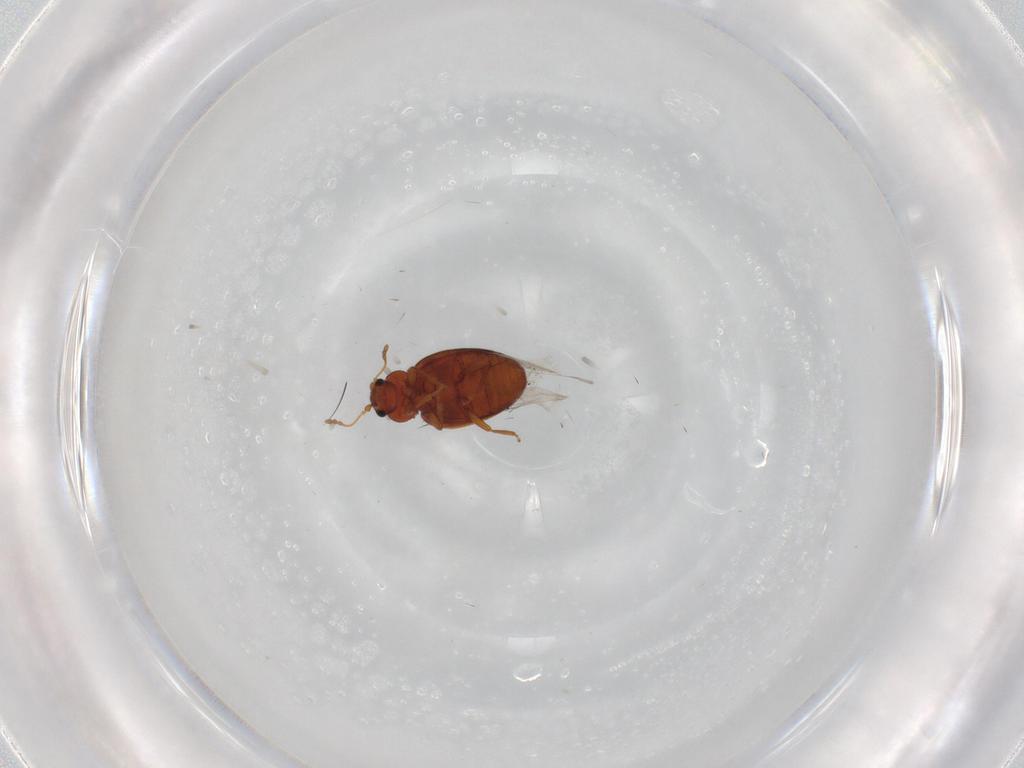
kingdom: Animalia
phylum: Arthropoda
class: Insecta
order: Coleoptera
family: Latridiidae
